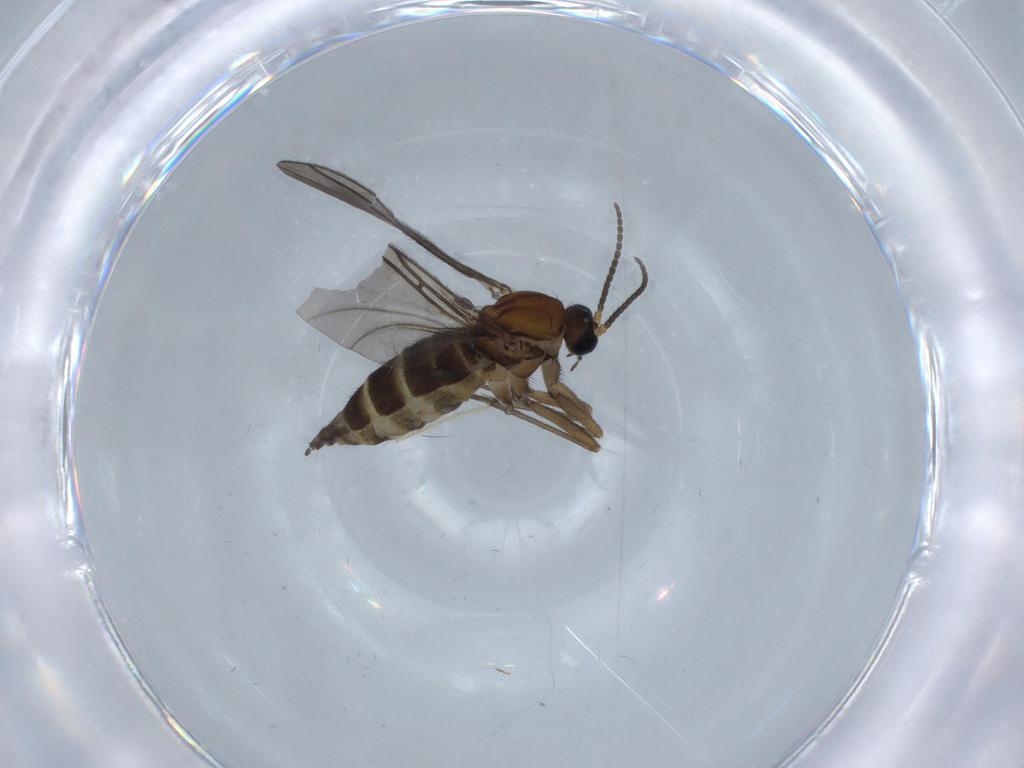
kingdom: Animalia
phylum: Arthropoda
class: Insecta
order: Diptera
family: Sciaridae
